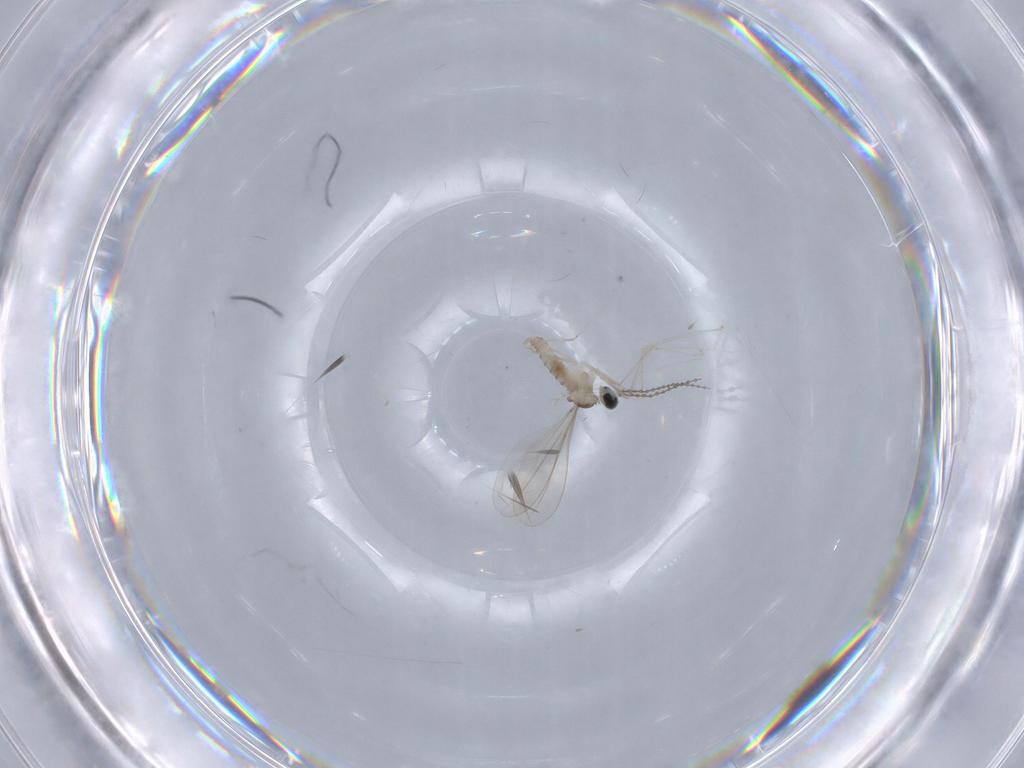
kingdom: Animalia
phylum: Arthropoda
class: Insecta
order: Diptera
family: Cecidomyiidae
